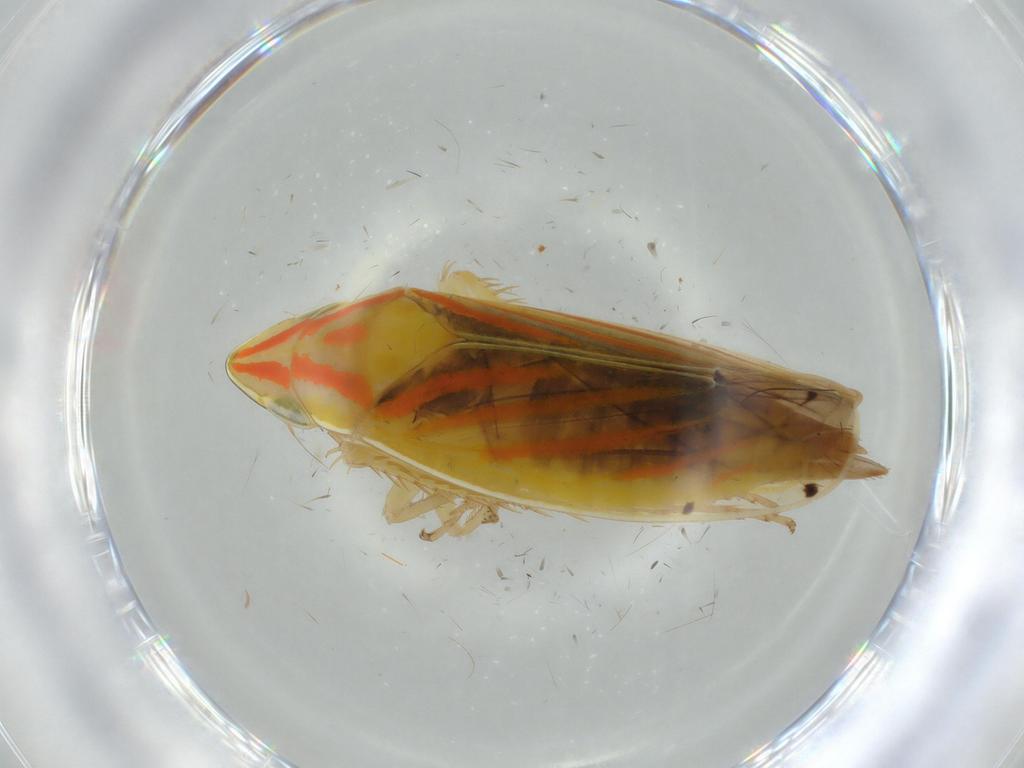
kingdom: Animalia
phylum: Arthropoda
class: Insecta
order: Hemiptera
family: Cicadellidae
